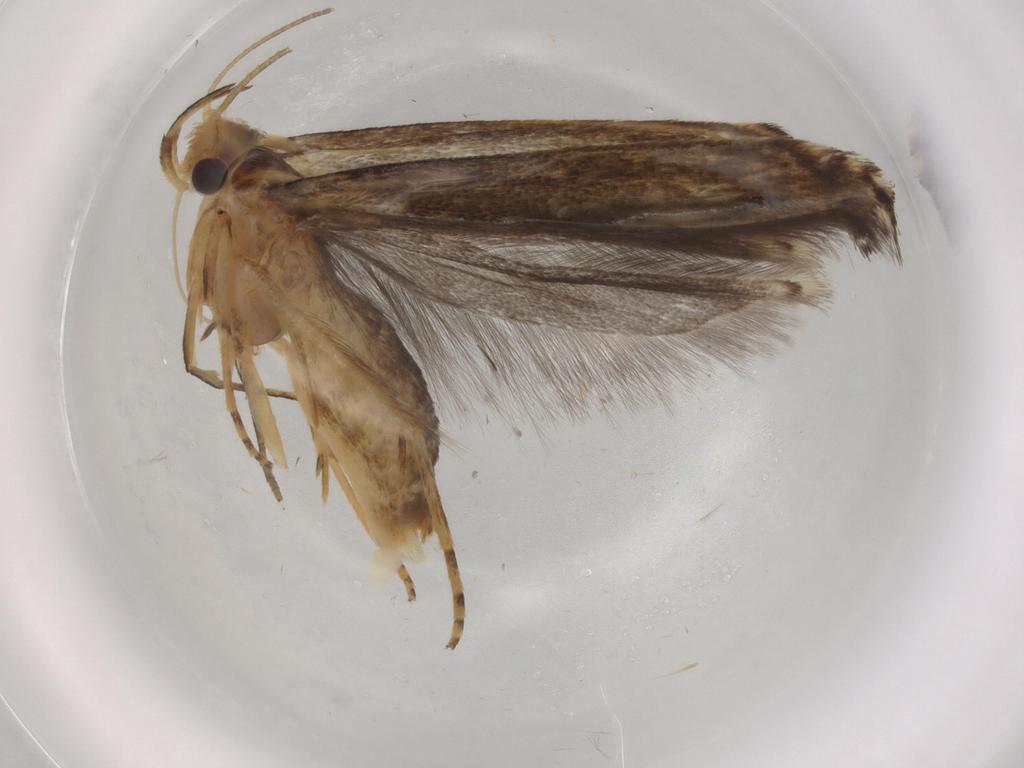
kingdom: Animalia
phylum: Arthropoda
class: Insecta
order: Lepidoptera
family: Gelechiidae
